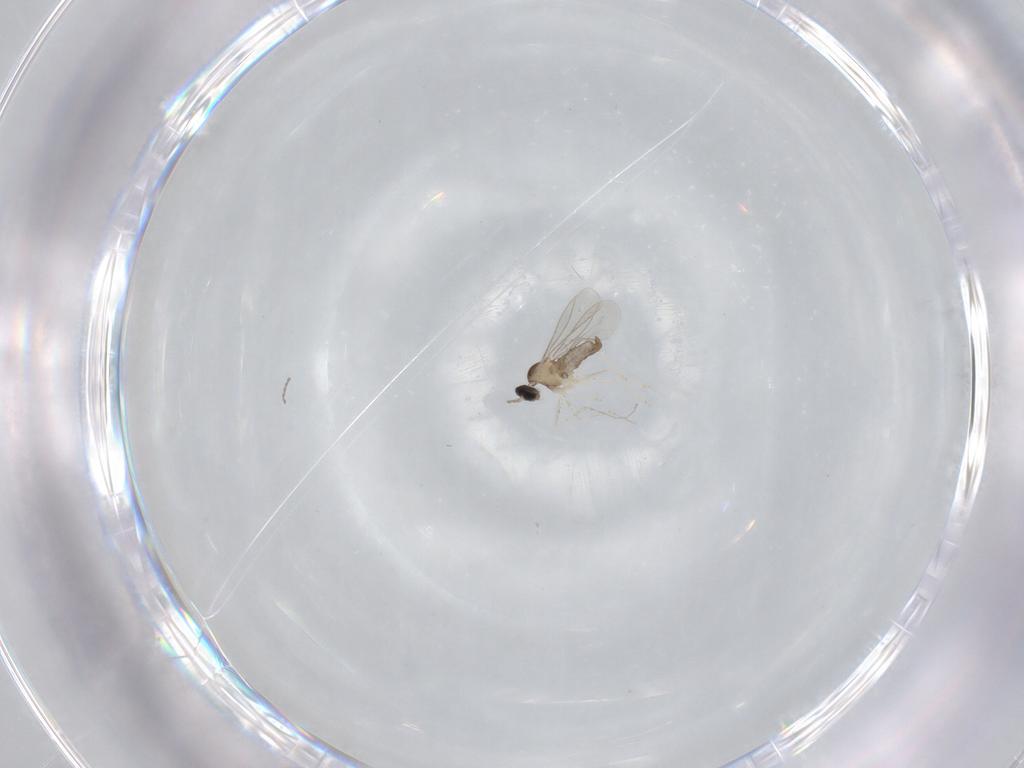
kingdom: Animalia
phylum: Arthropoda
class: Insecta
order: Diptera
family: Cecidomyiidae
